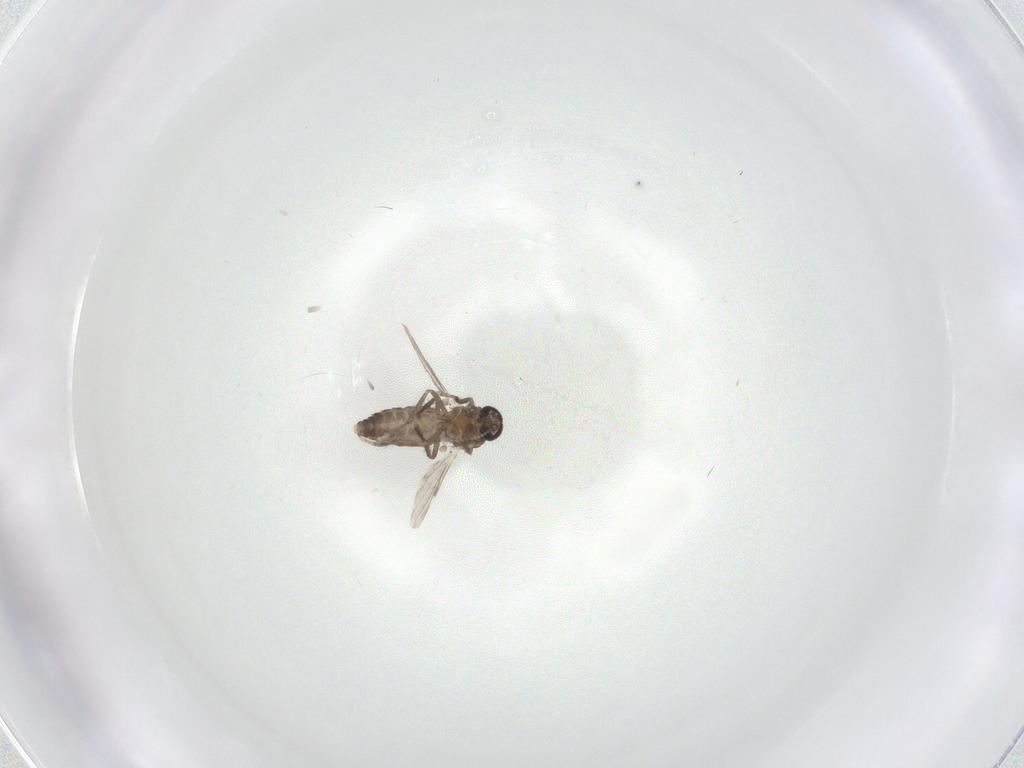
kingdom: Animalia
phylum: Arthropoda
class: Insecta
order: Diptera
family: Ceratopogonidae
